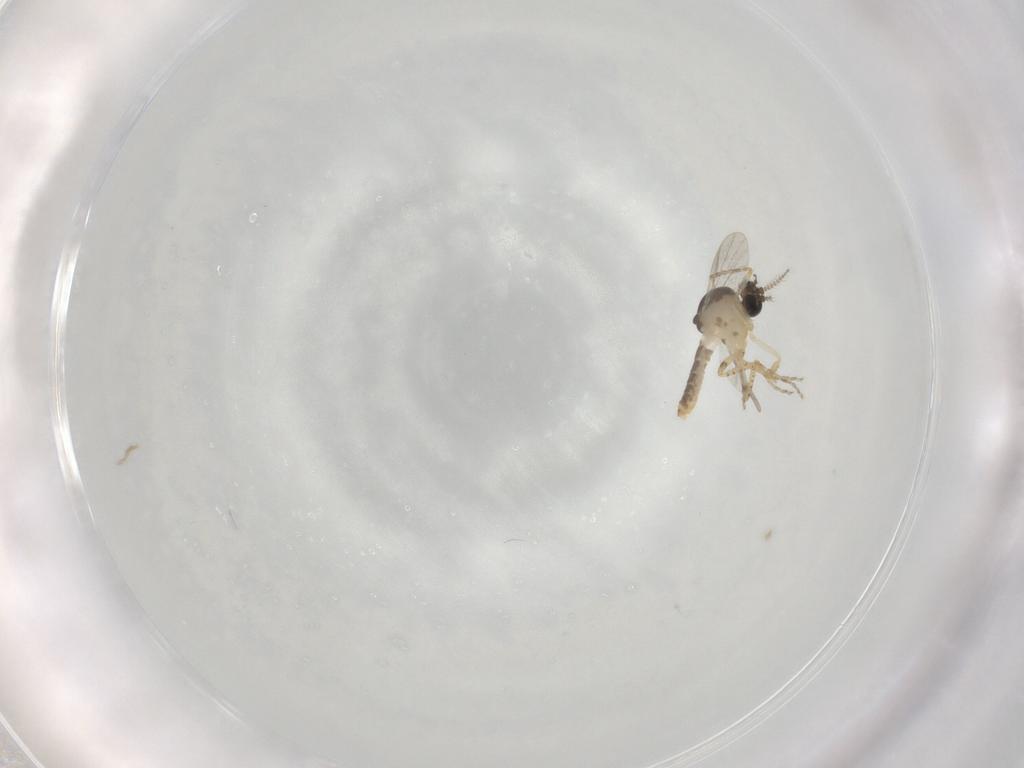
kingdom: Animalia
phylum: Arthropoda
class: Insecta
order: Diptera
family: Ceratopogonidae
